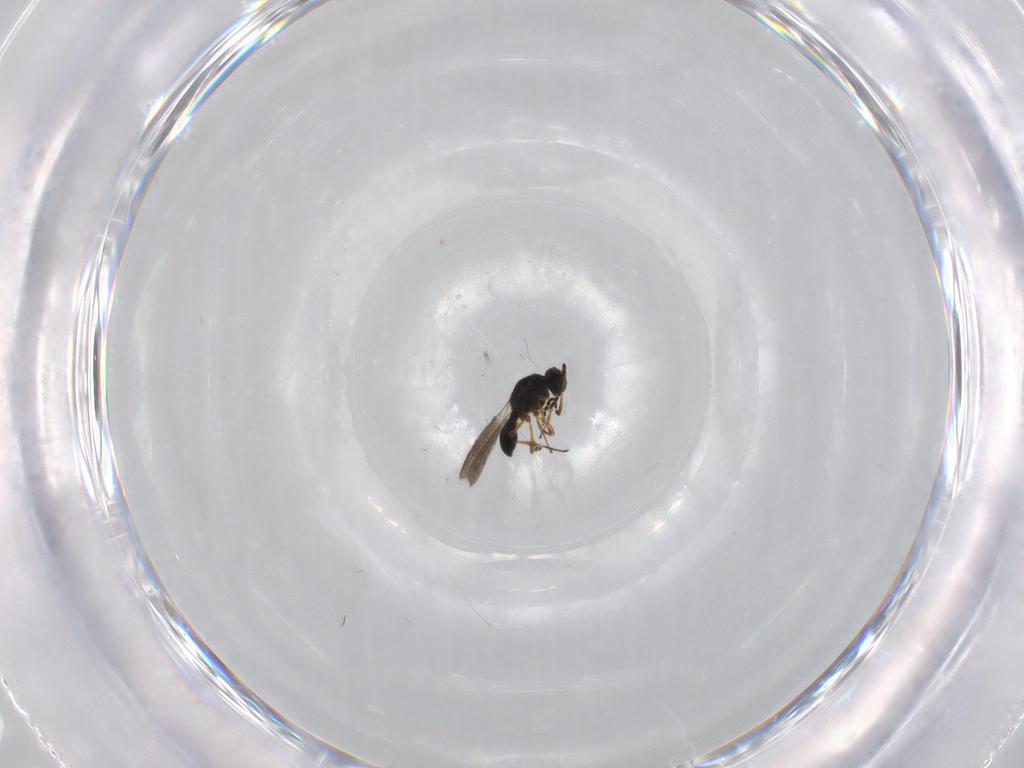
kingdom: Animalia
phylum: Arthropoda
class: Insecta
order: Hymenoptera
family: Platygastridae
